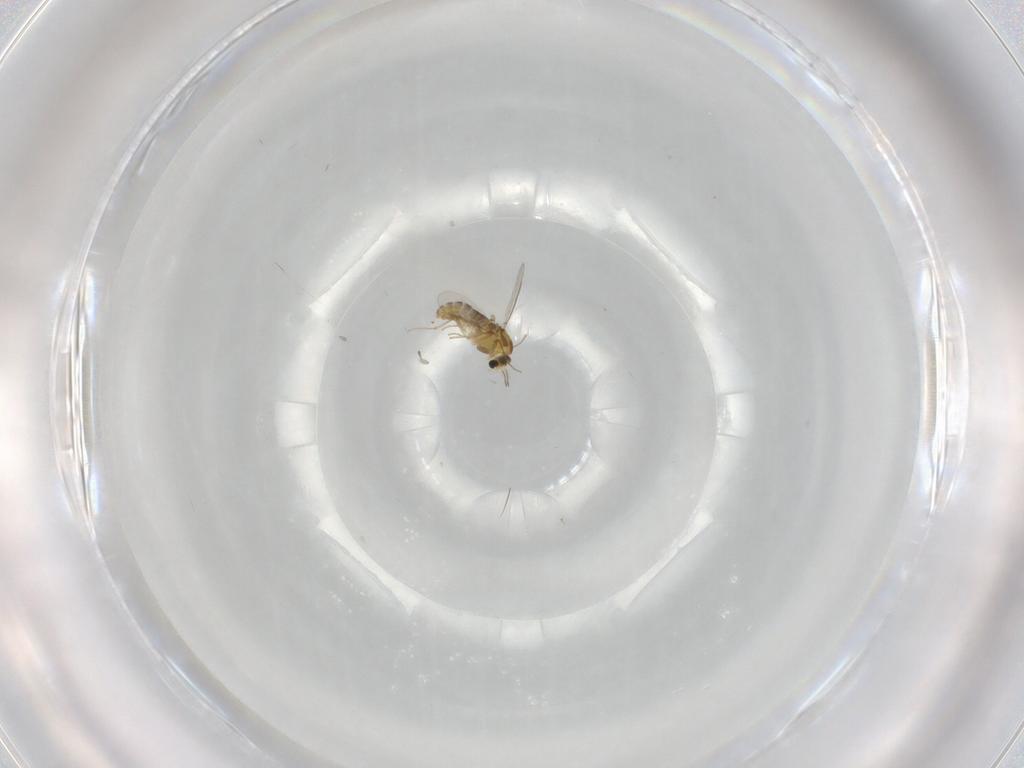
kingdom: Animalia
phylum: Arthropoda
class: Insecta
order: Diptera
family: Chironomidae
